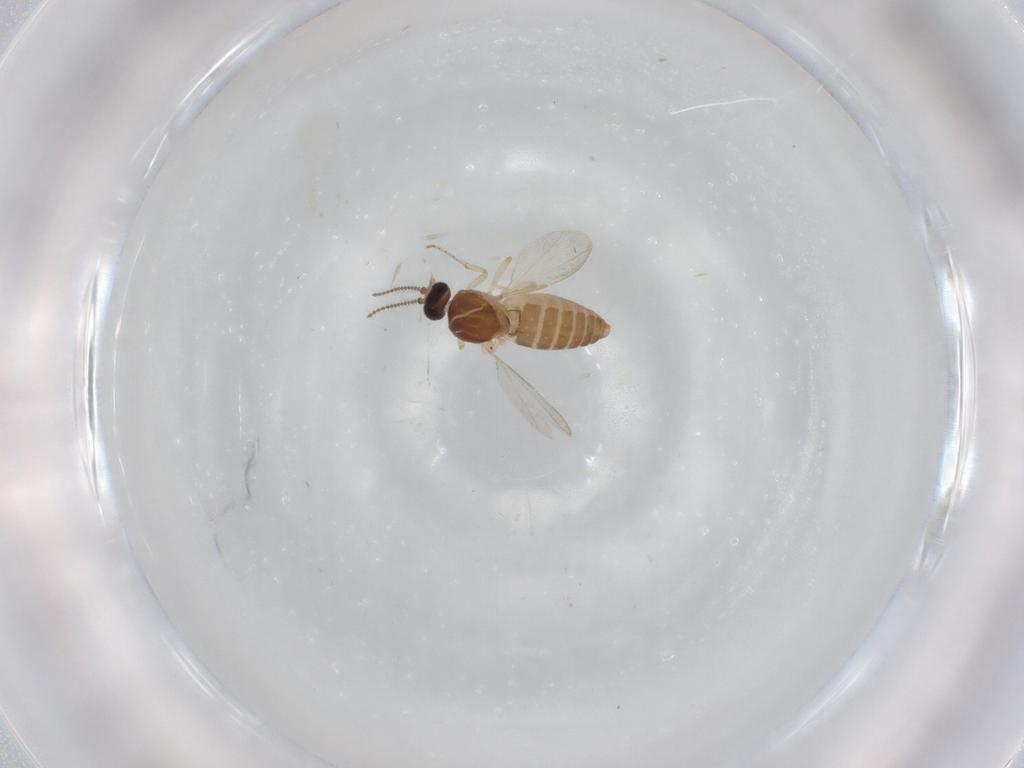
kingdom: Animalia
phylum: Arthropoda
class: Insecta
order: Diptera
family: Ceratopogonidae
